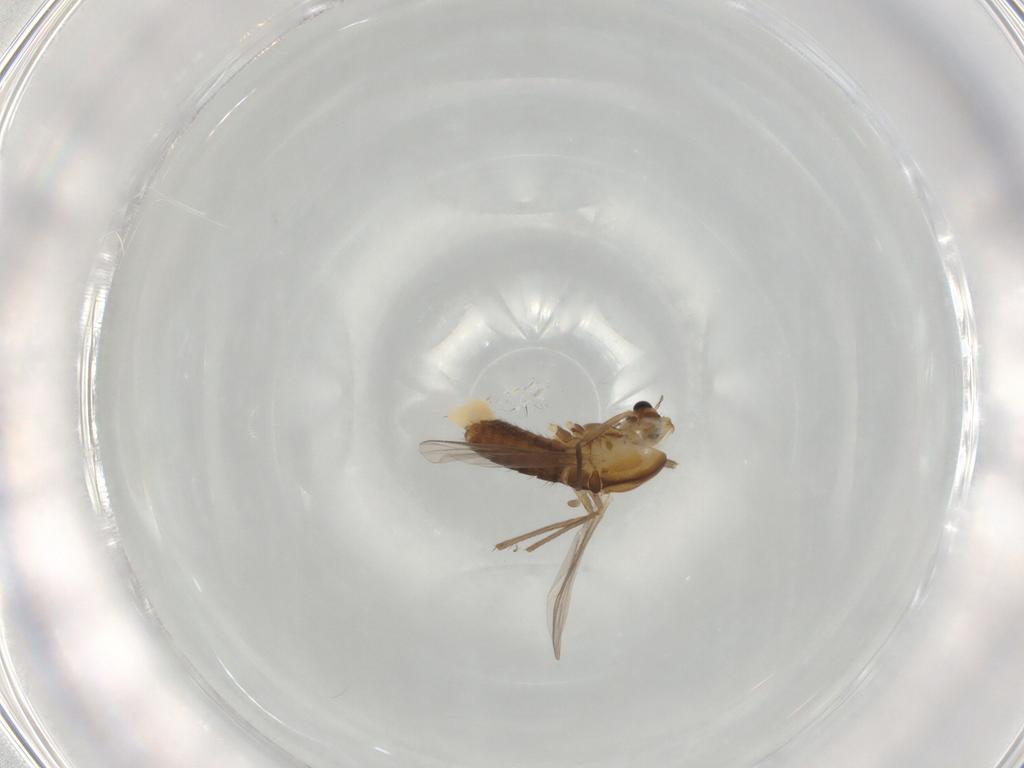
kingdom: Animalia
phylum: Arthropoda
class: Insecta
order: Diptera
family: Chironomidae
